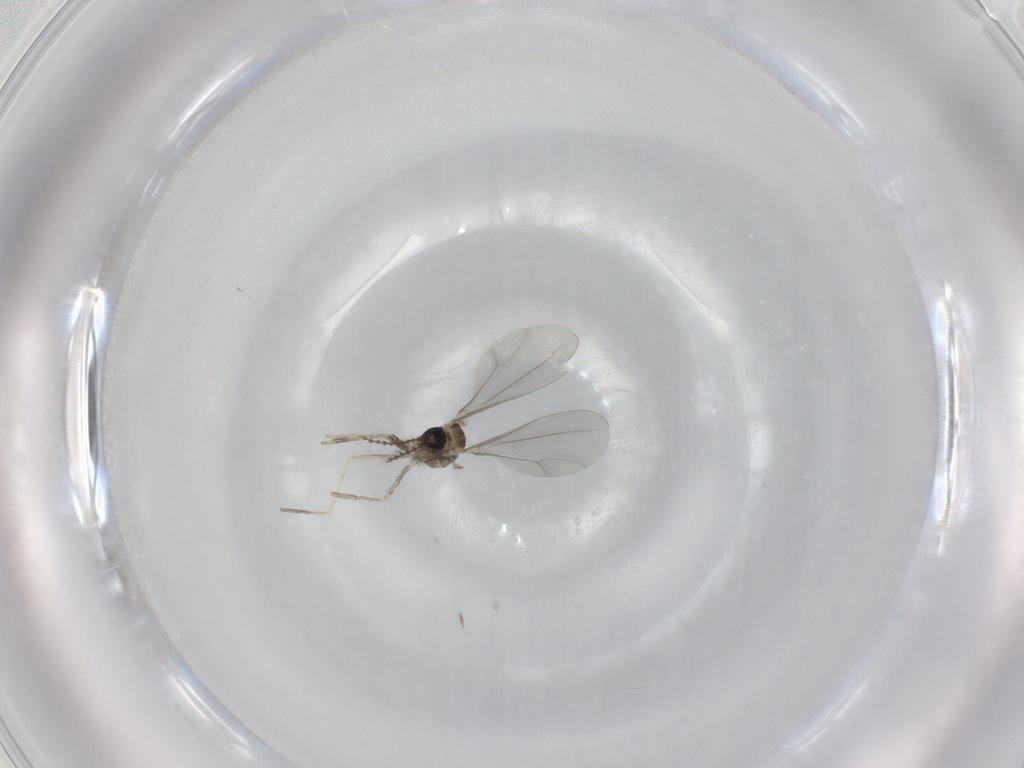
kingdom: Animalia
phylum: Arthropoda
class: Insecta
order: Diptera
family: Cecidomyiidae
